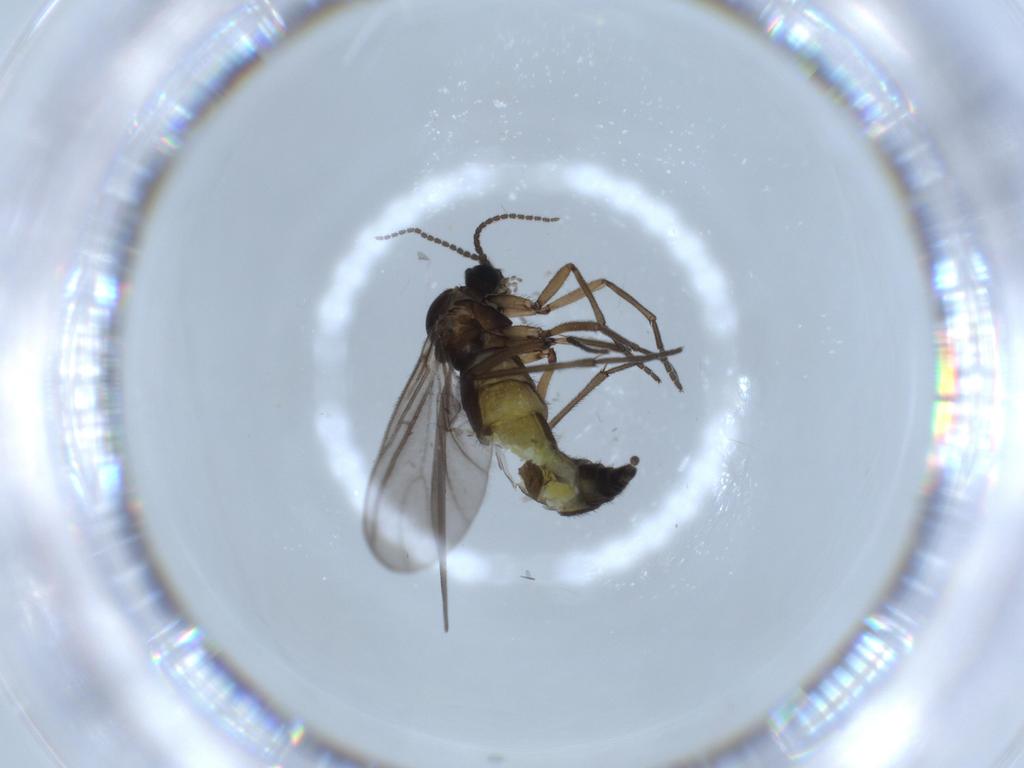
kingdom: Animalia
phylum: Arthropoda
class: Insecta
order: Diptera
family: Sciaridae
